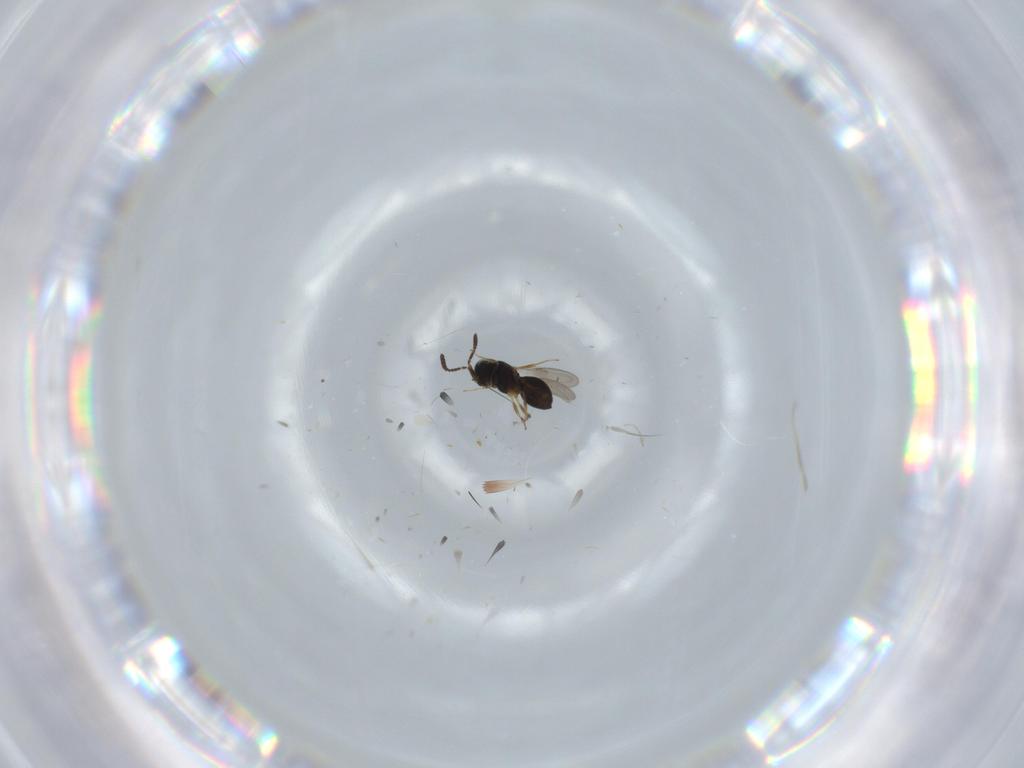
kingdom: Animalia
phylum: Arthropoda
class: Insecta
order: Hymenoptera
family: Scelionidae
